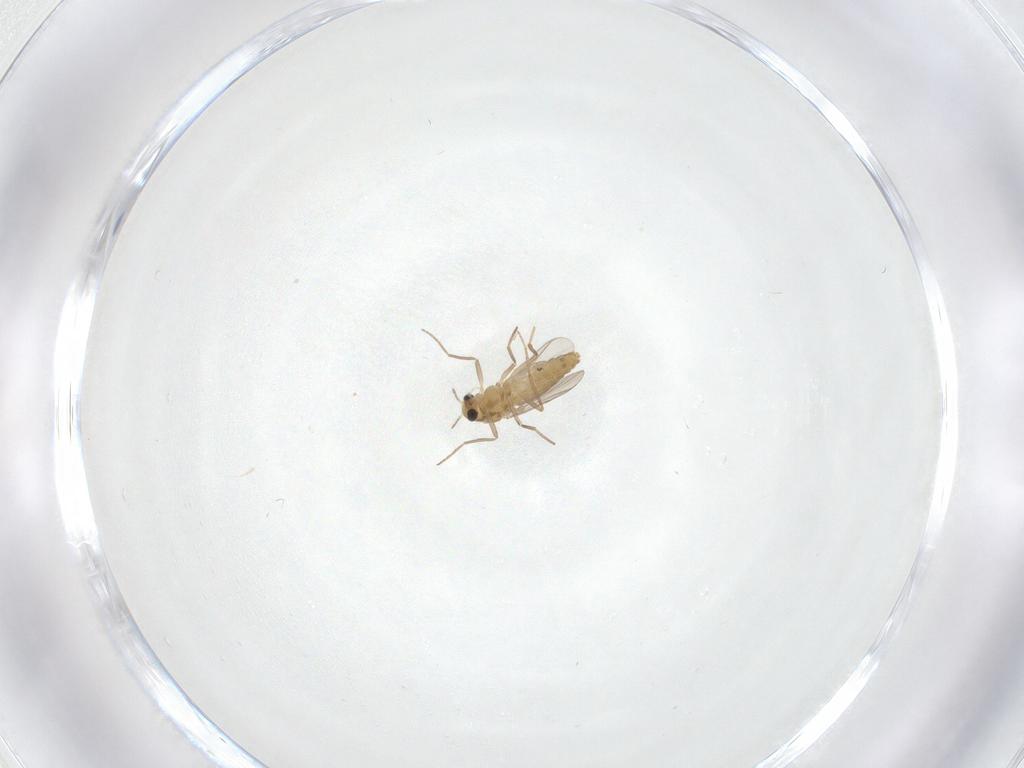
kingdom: Animalia
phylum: Arthropoda
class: Insecta
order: Diptera
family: Chironomidae
